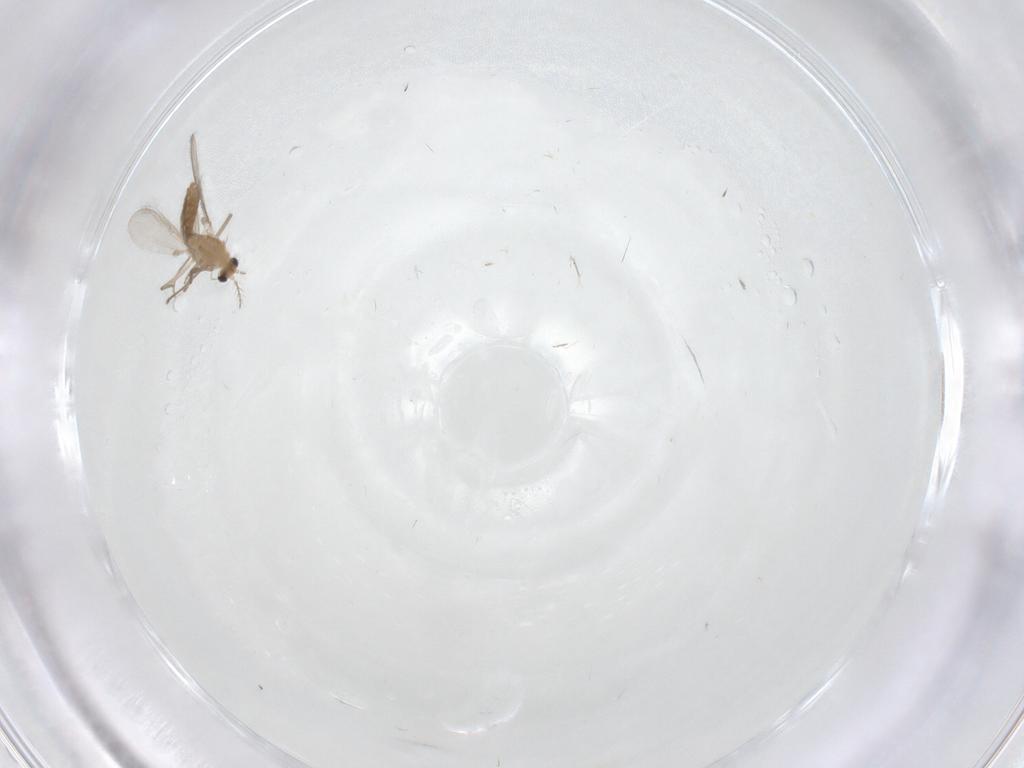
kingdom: Animalia
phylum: Arthropoda
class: Insecta
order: Diptera
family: Chironomidae
